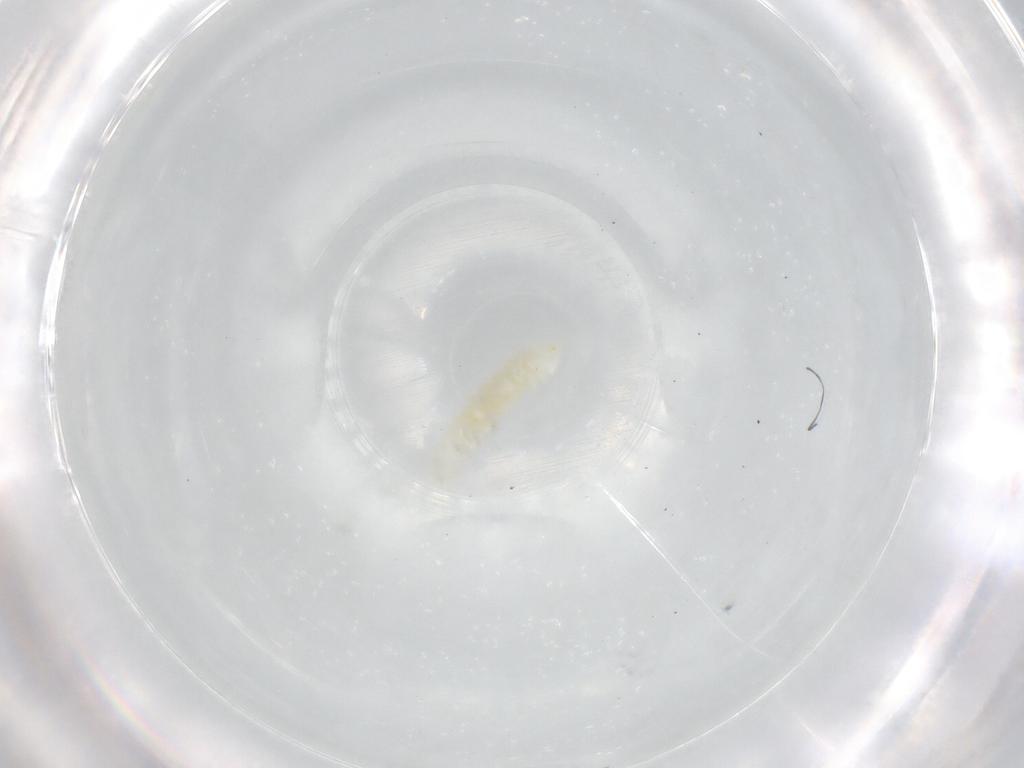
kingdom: Animalia
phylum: Arthropoda
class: Collembola
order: Poduromorpha
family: Onychiuridae
